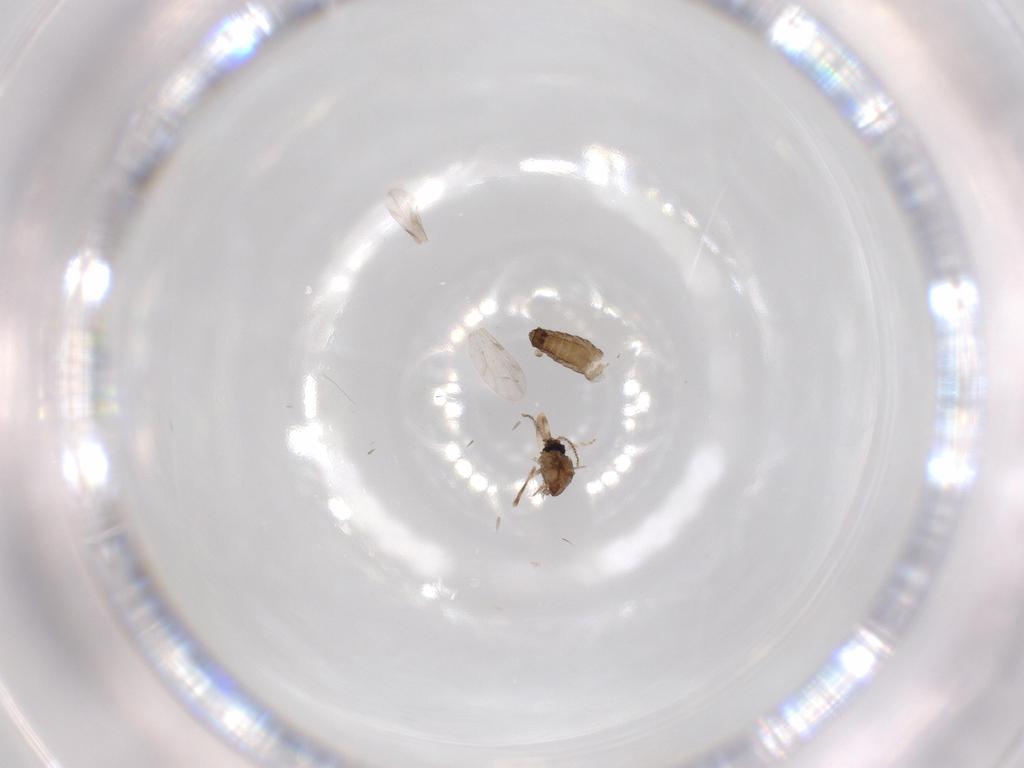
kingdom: Animalia
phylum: Arthropoda
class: Insecta
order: Diptera
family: Ceratopogonidae
